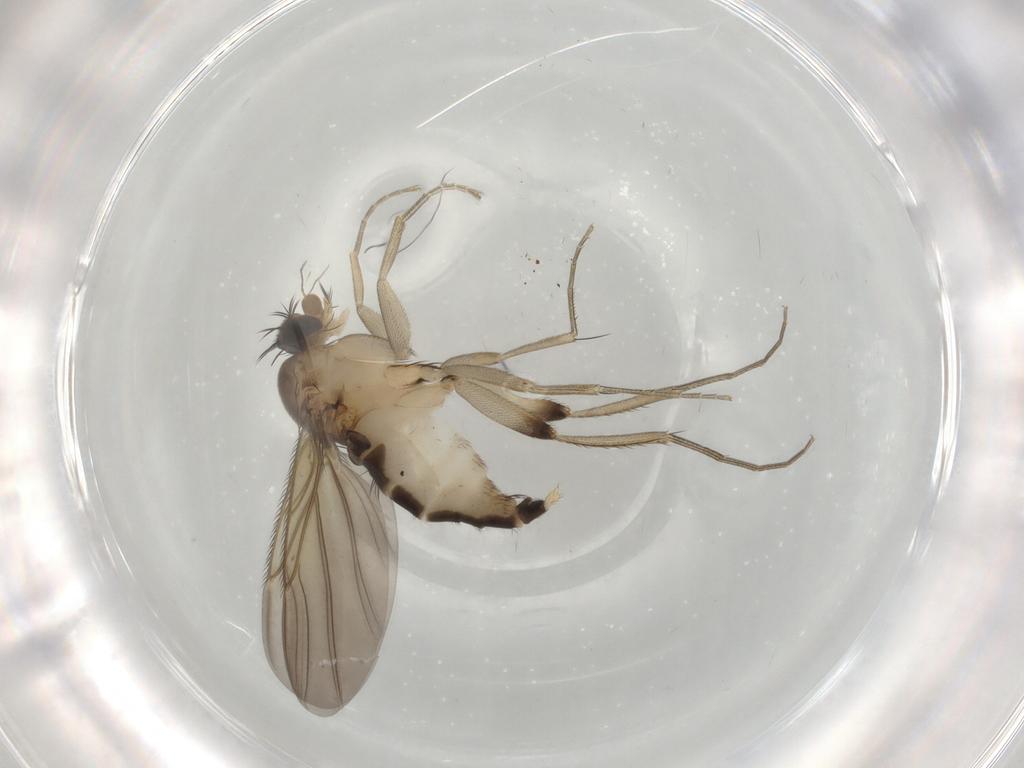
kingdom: Animalia
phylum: Arthropoda
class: Insecta
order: Diptera
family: Phoridae
